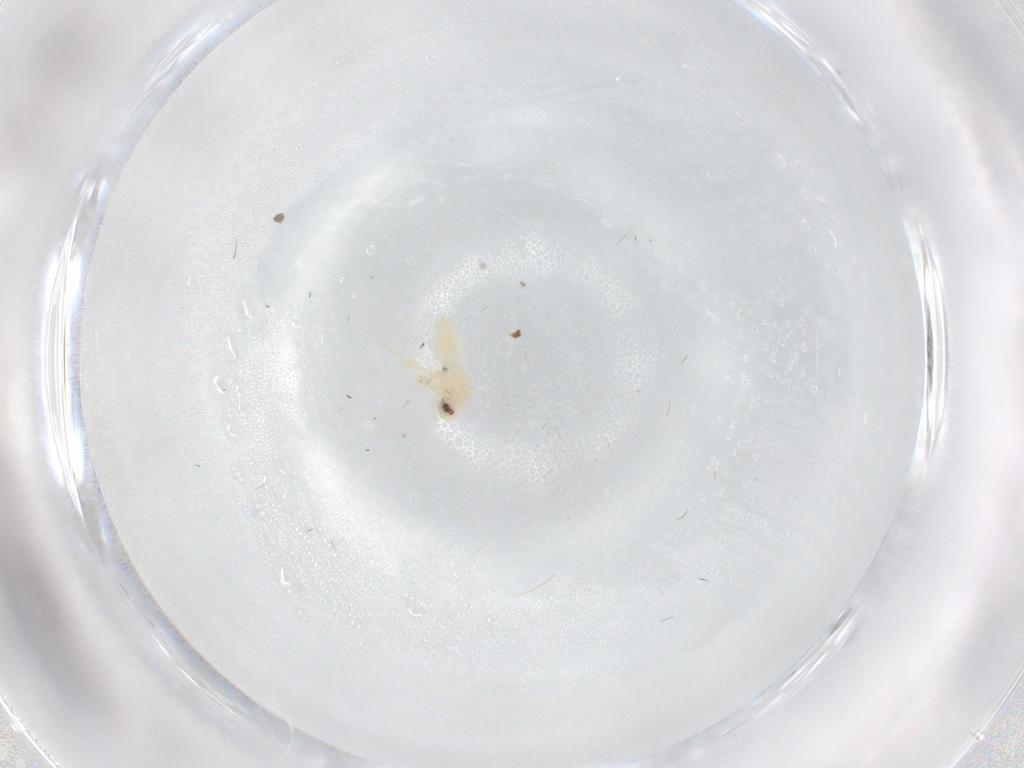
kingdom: Animalia
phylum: Arthropoda
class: Insecta
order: Hemiptera
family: Aleyrodidae
